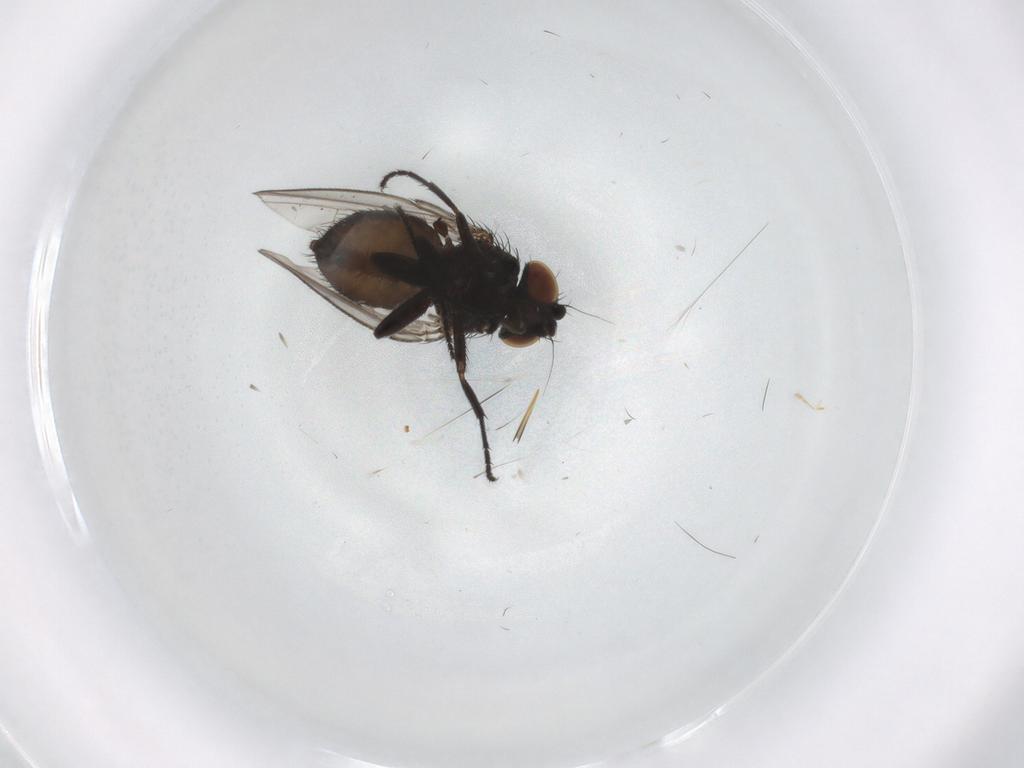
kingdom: Animalia
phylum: Arthropoda
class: Insecta
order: Diptera
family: Milichiidae
